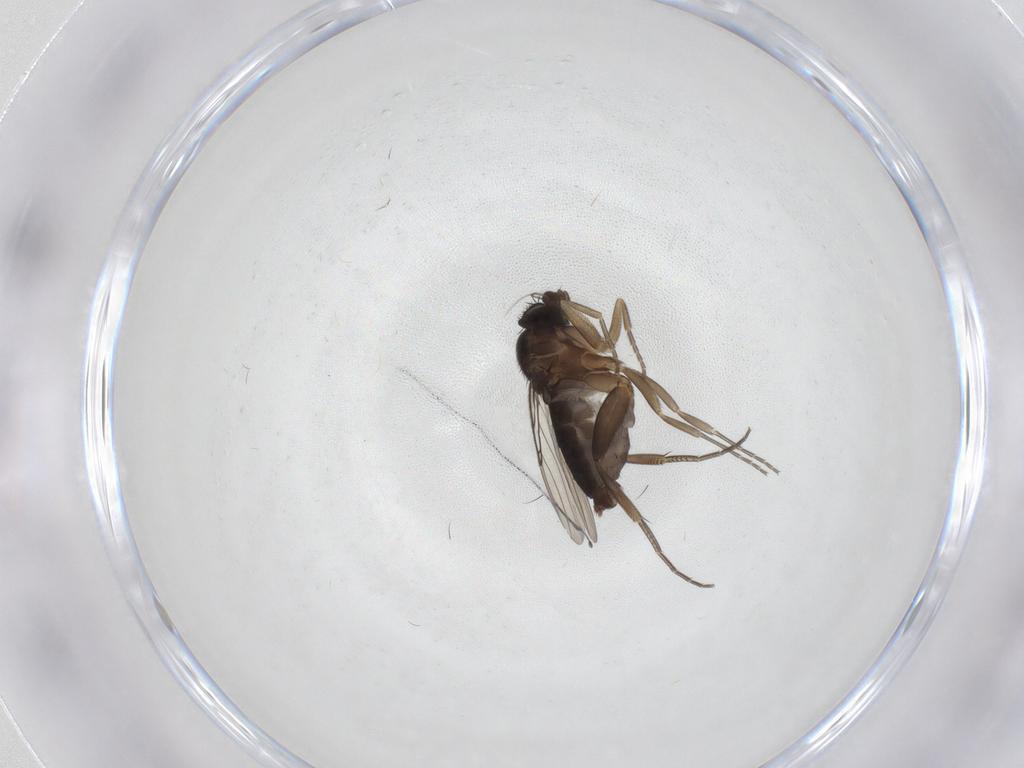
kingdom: Animalia
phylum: Arthropoda
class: Insecta
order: Diptera
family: Phoridae
